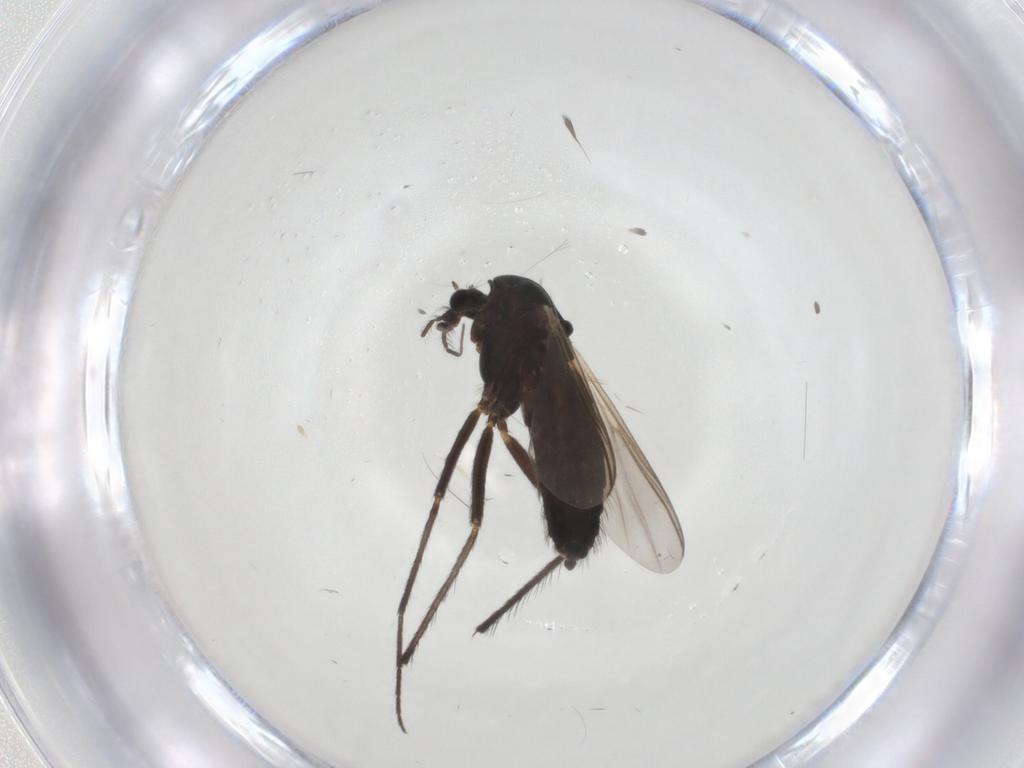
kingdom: Animalia
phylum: Arthropoda
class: Insecta
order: Diptera
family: Chironomidae
